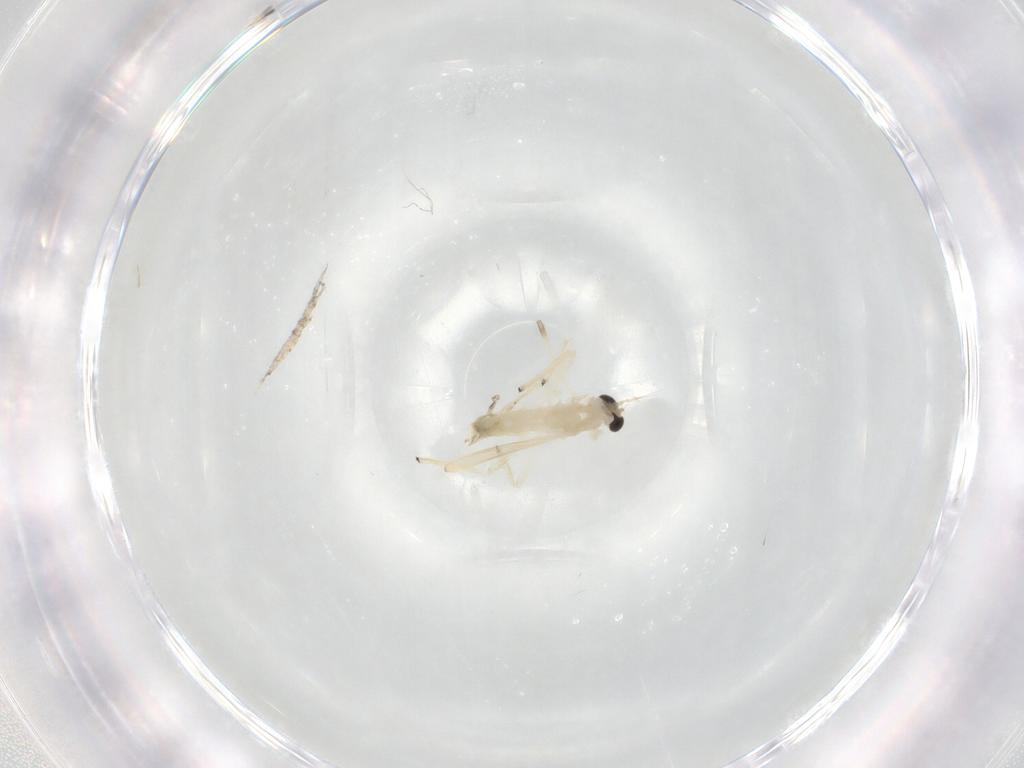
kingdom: Animalia
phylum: Arthropoda
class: Insecta
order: Diptera
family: Chironomidae
